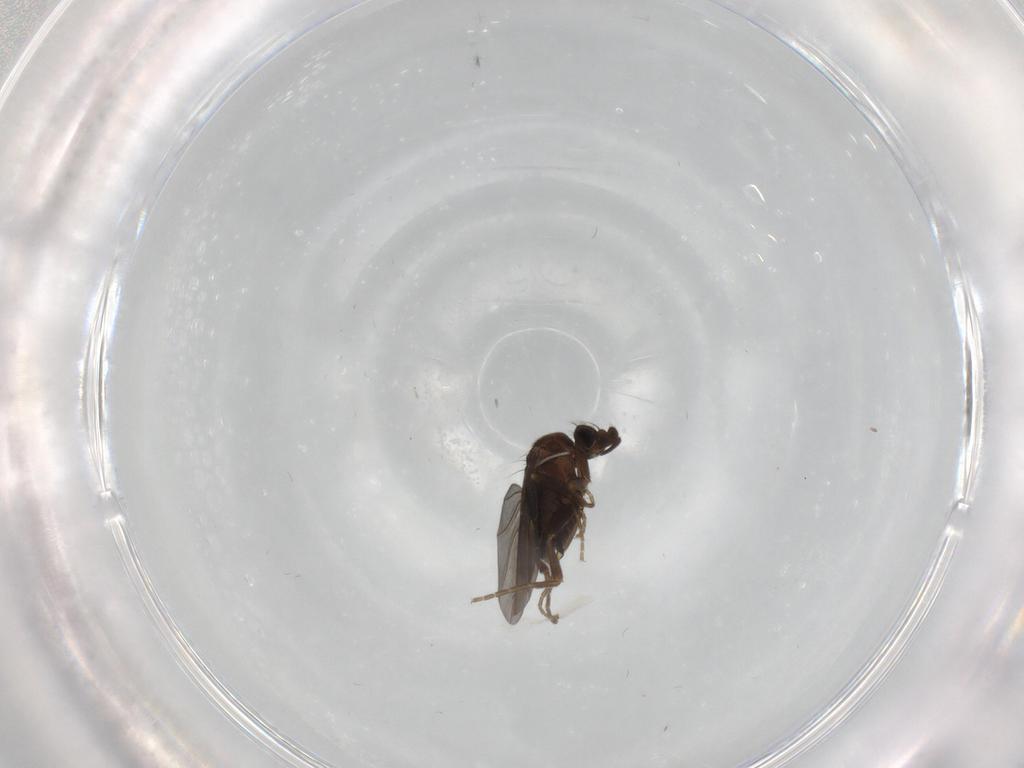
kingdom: Animalia
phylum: Arthropoda
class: Insecta
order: Diptera
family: Phoridae
